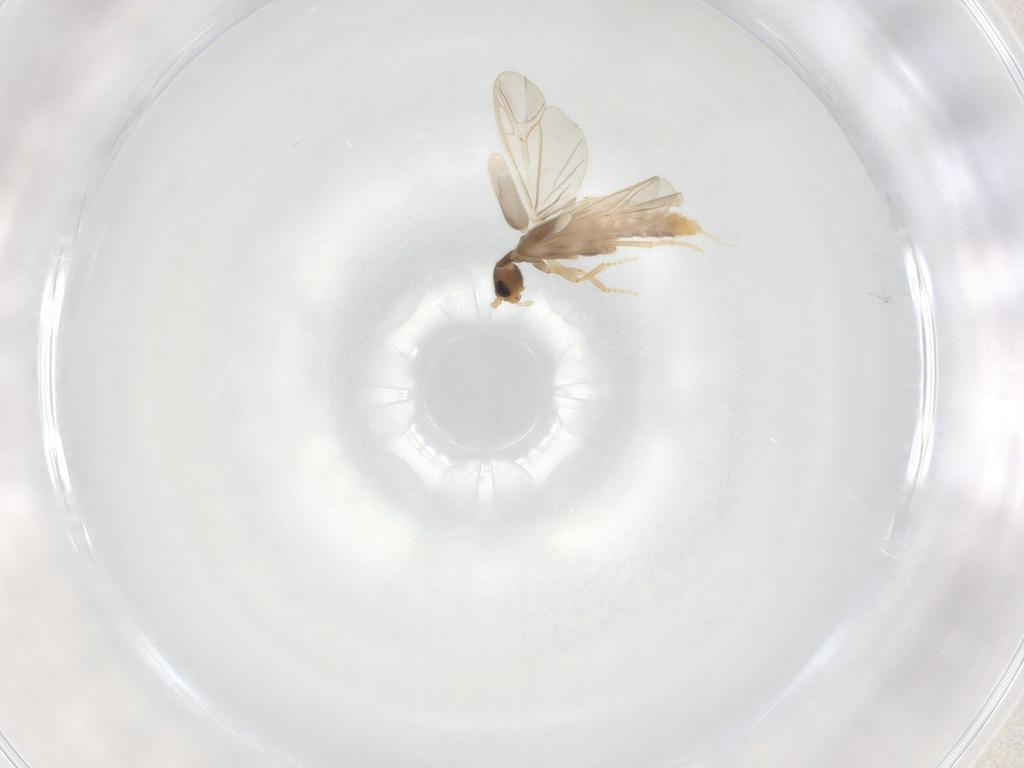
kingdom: Animalia
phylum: Arthropoda
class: Insecta
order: Coleoptera
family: Phengodidae
